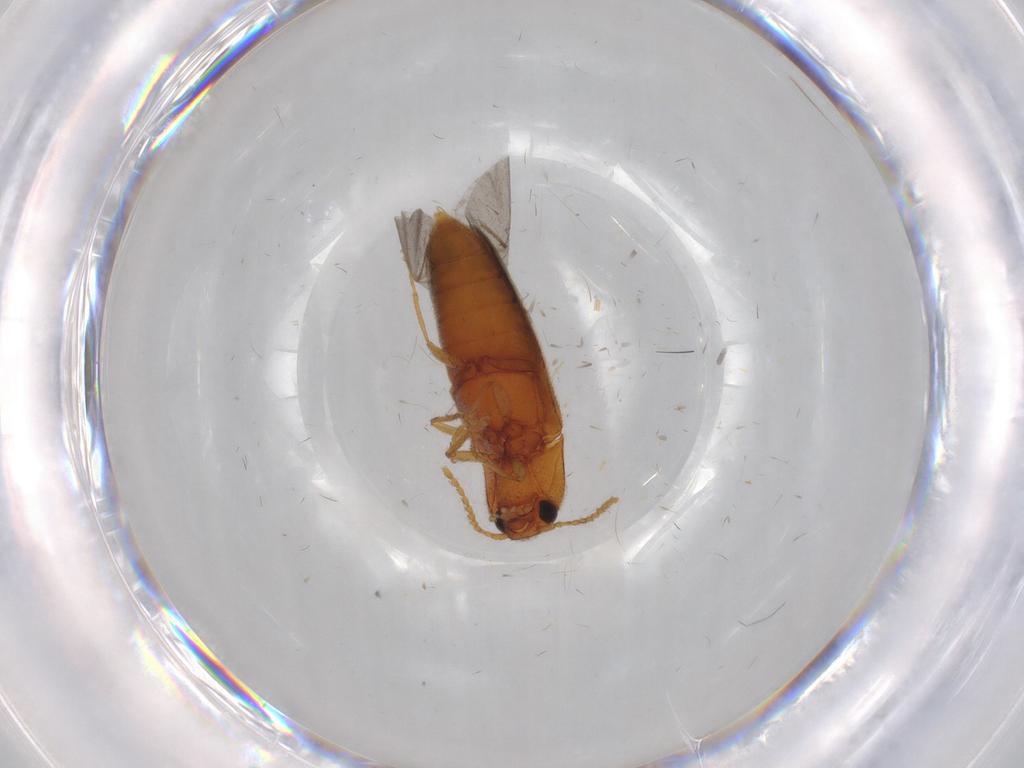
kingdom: Animalia
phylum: Arthropoda
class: Insecta
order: Coleoptera
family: Elateridae
